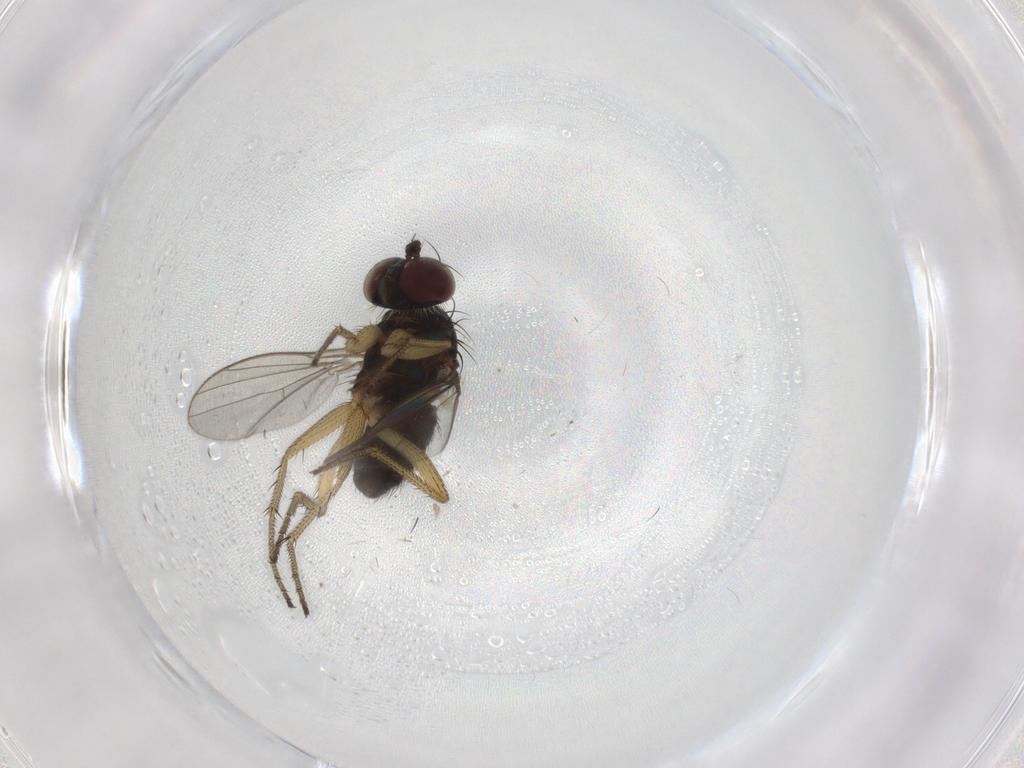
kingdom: Animalia
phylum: Arthropoda
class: Insecta
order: Diptera
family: Dolichopodidae
